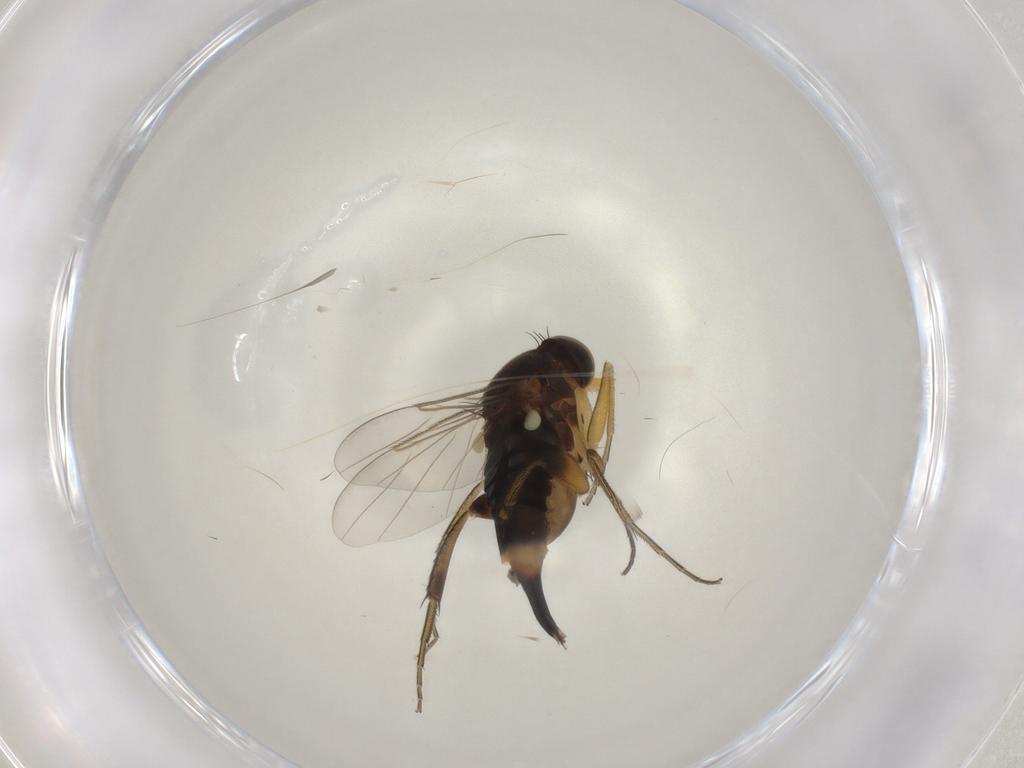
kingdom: Animalia
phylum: Arthropoda
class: Insecta
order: Diptera
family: Phoridae
